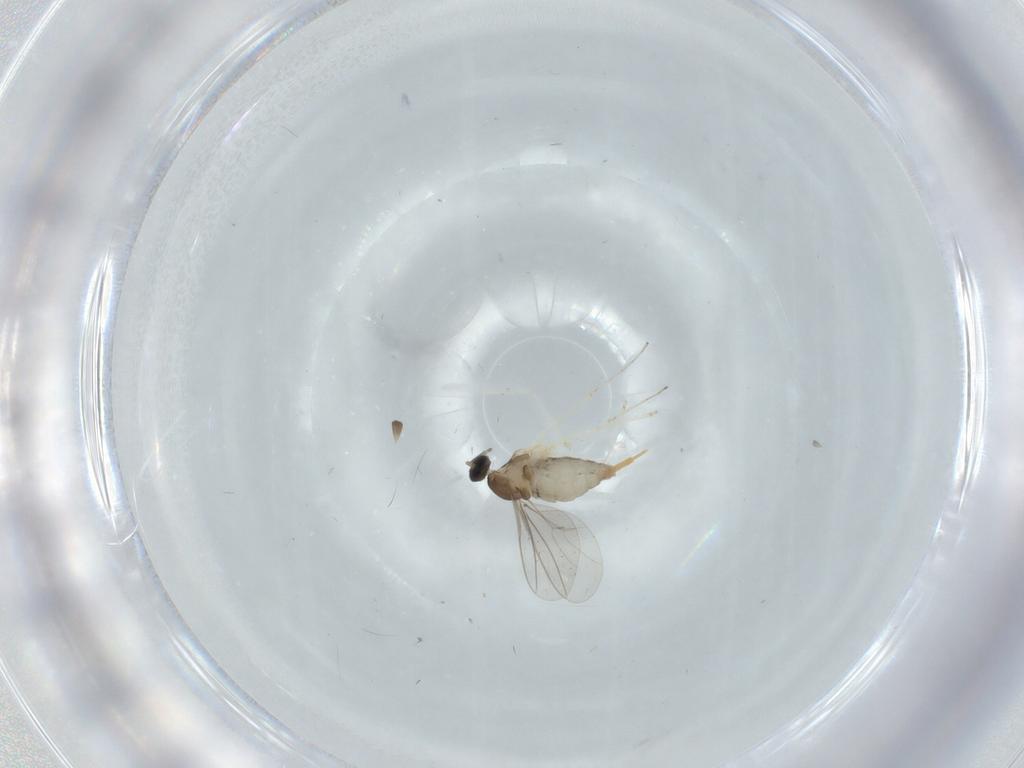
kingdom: Animalia
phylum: Arthropoda
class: Insecta
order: Diptera
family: Cecidomyiidae
